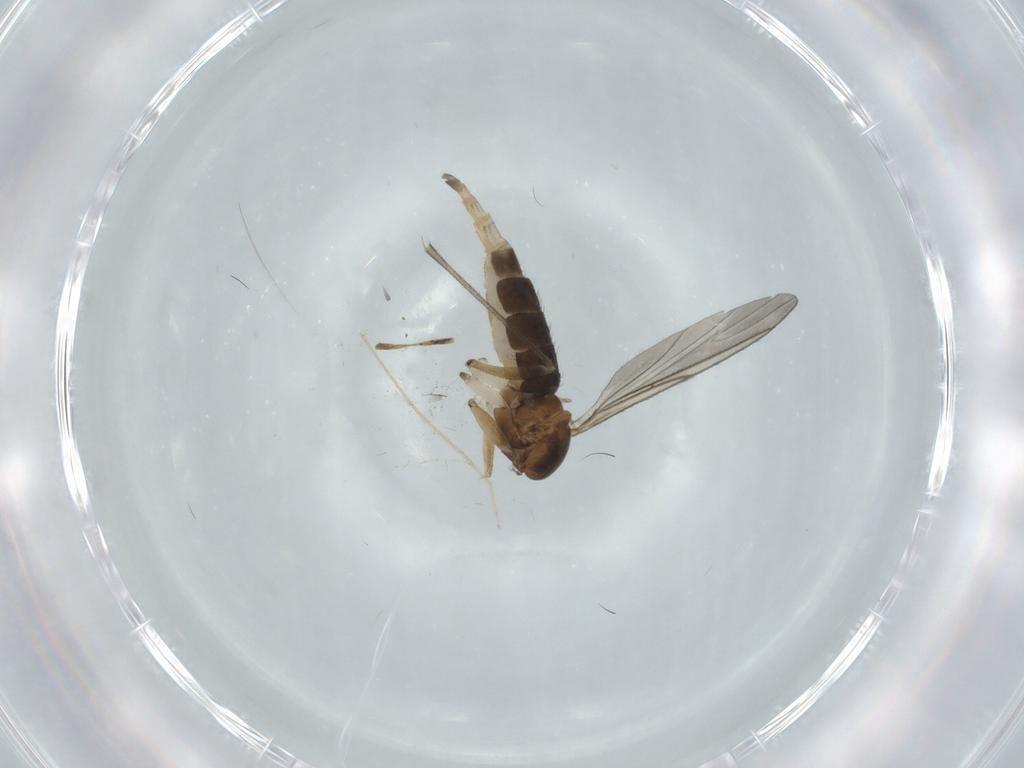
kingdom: Animalia
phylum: Arthropoda
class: Insecta
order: Diptera
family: Sciaridae
